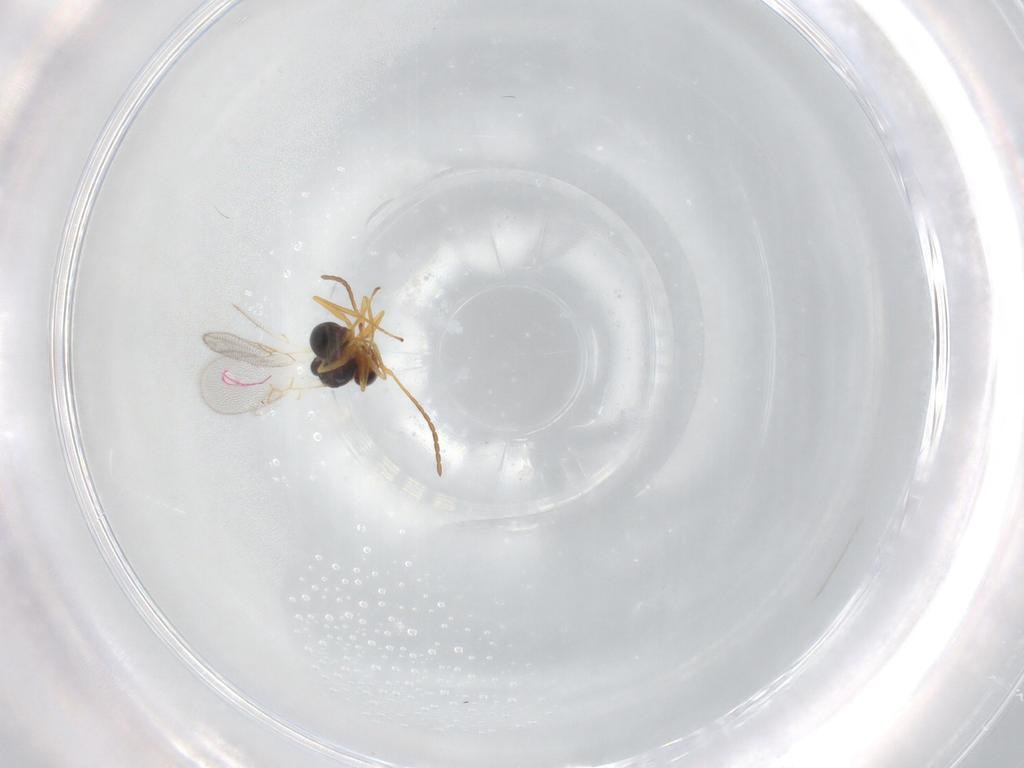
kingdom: Animalia
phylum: Arthropoda
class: Insecta
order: Hymenoptera
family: Figitidae
